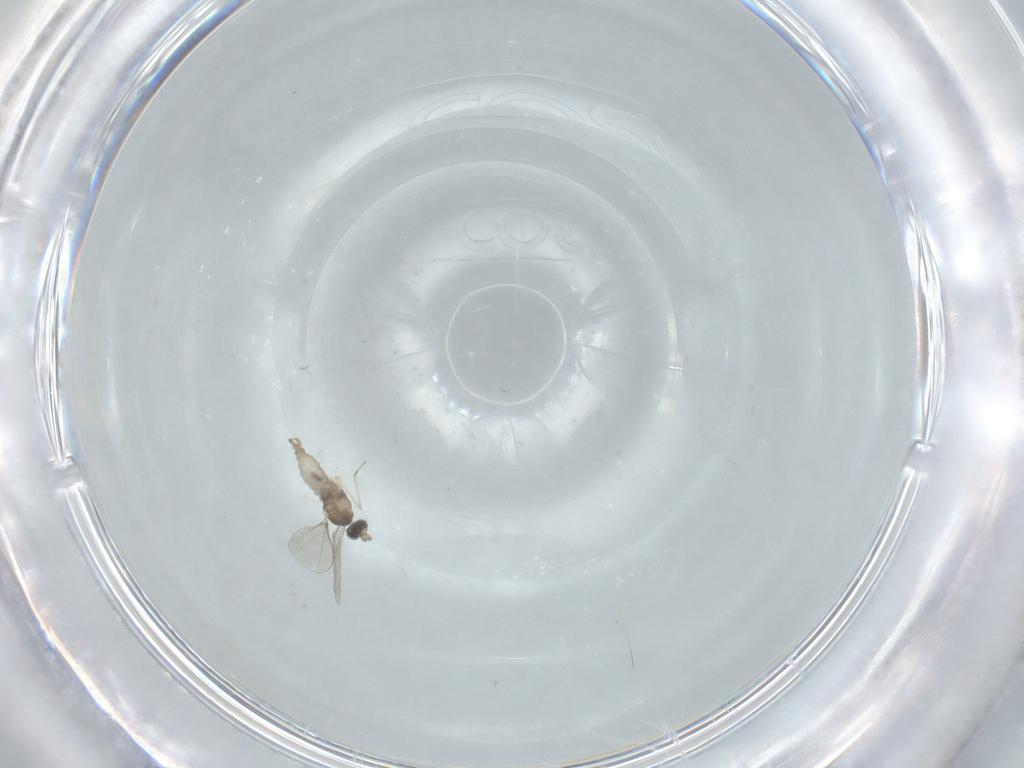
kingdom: Animalia
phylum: Arthropoda
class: Insecta
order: Diptera
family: Cecidomyiidae
